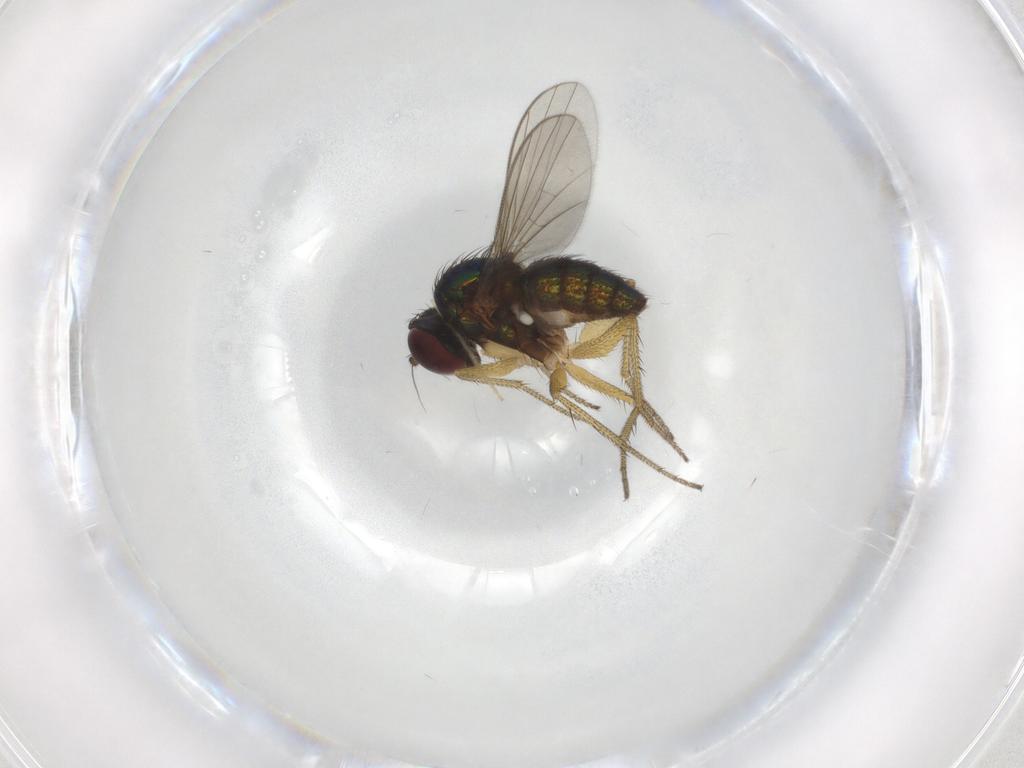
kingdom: Animalia
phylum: Arthropoda
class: Insecta
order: Diptera
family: Chironomidae
